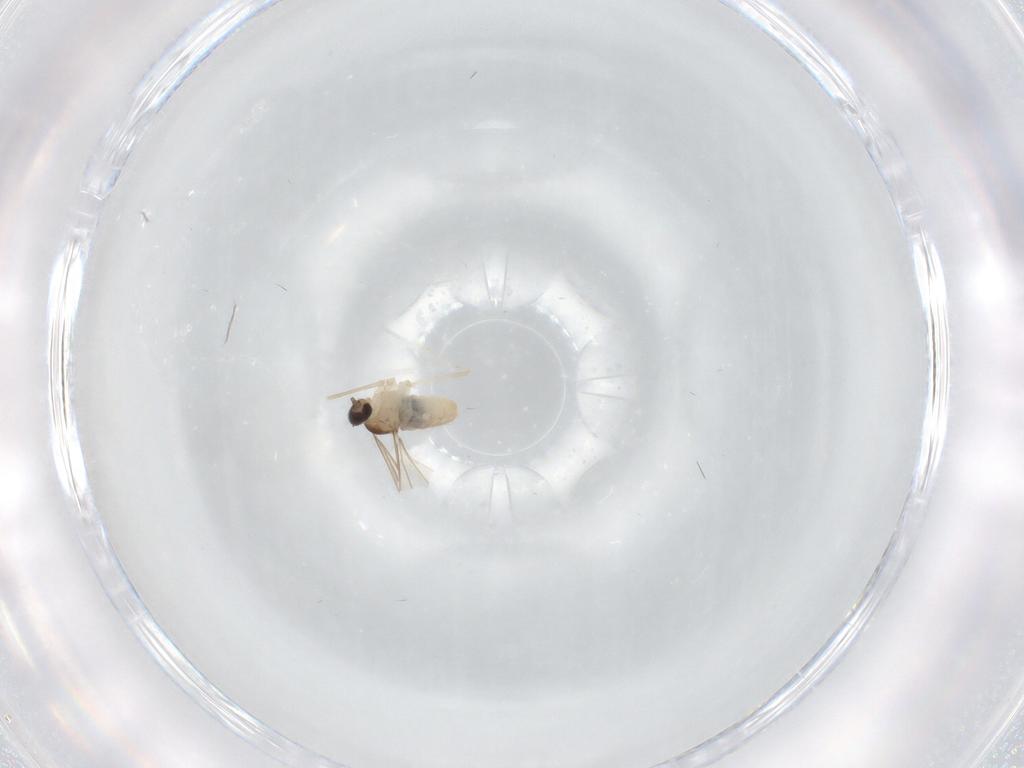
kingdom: Animalia
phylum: Arthropoda
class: Insecta
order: Diptera
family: Cecidomyiidae
